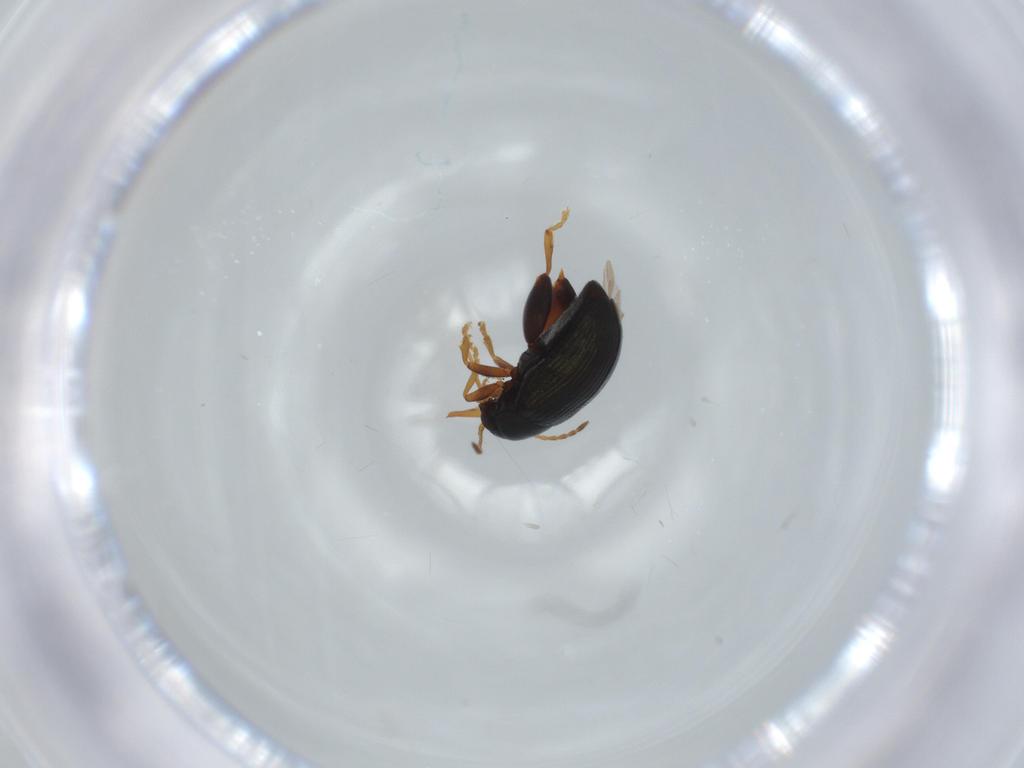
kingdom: Animalia
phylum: Arthropoda
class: Insecta
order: Coleoptera
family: Chrysomelidae
